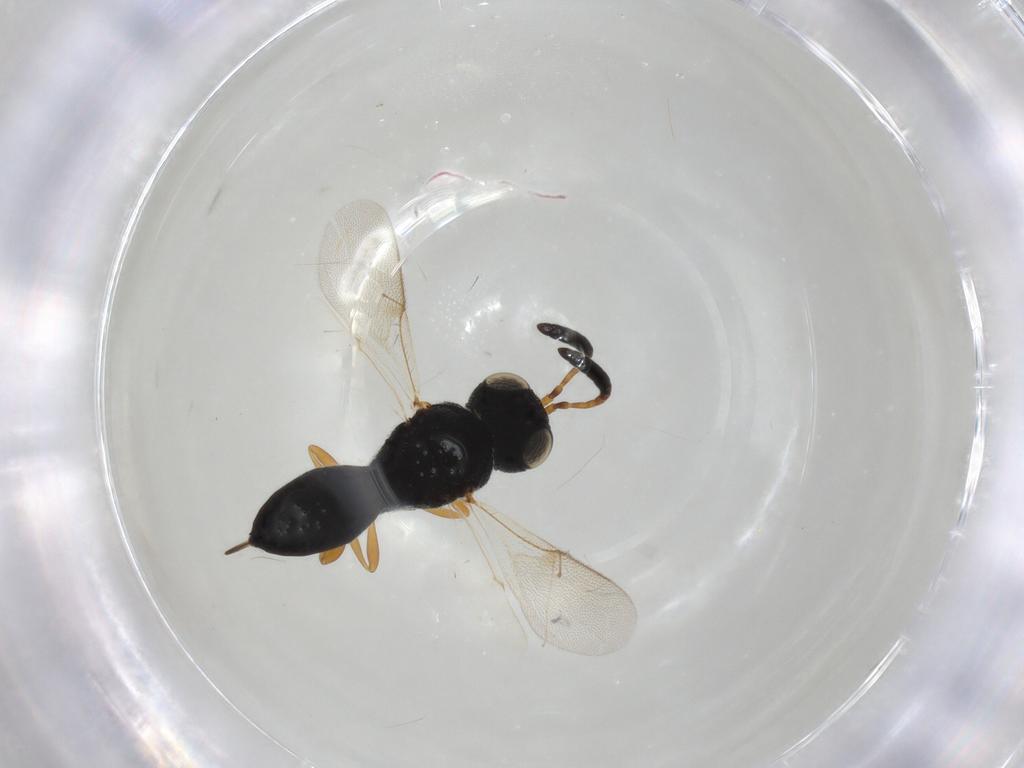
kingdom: Animalia
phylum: Arthropoda
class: Insecta
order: Hymenoptera
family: Scelionidae
